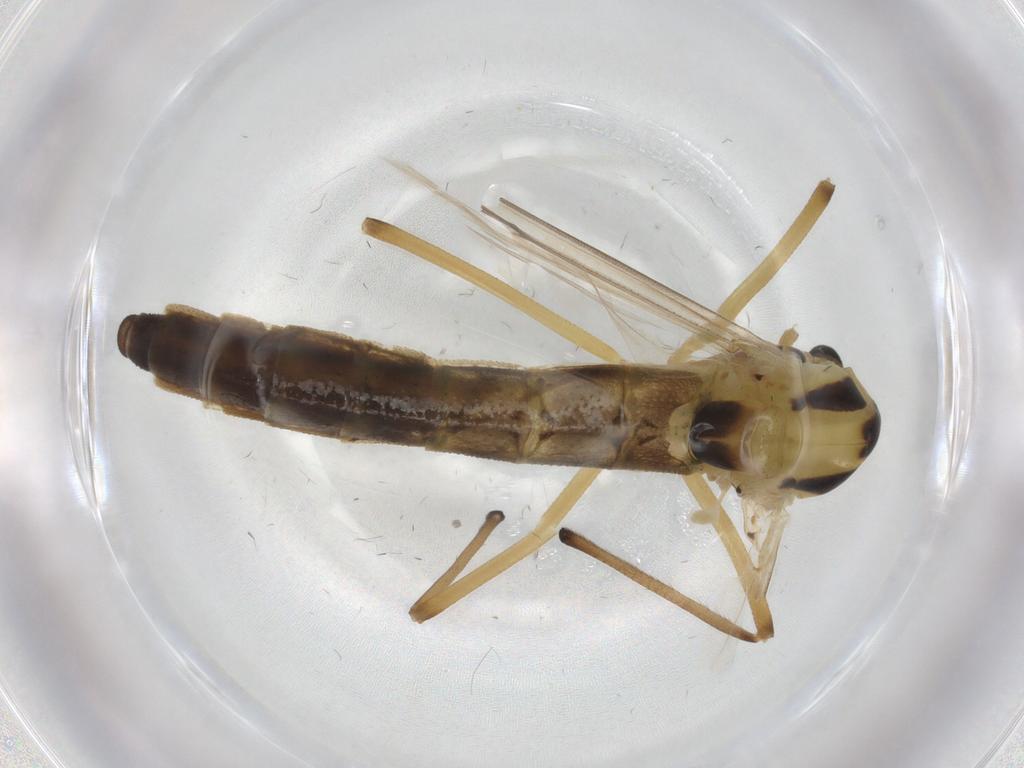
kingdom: Animalia
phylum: Arthropoda
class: Insecta
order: Diptera
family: Chironomidae
